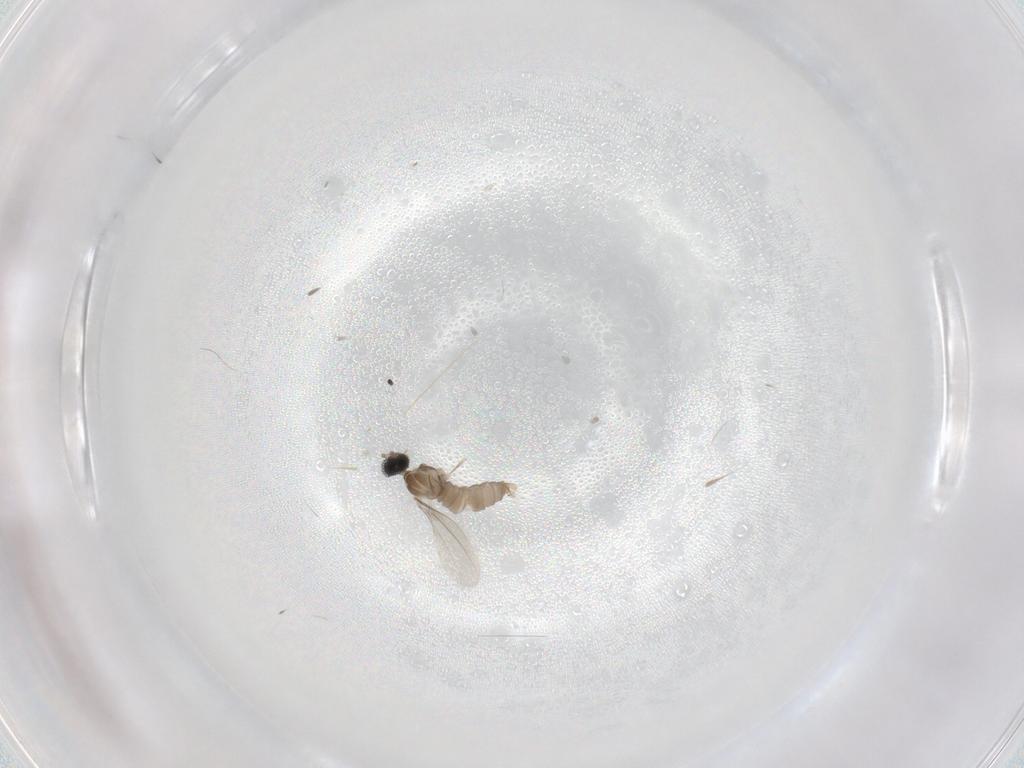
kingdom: Animalia
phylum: Arthropoda
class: Insecta
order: Diptera
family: Cecidomyiidae
